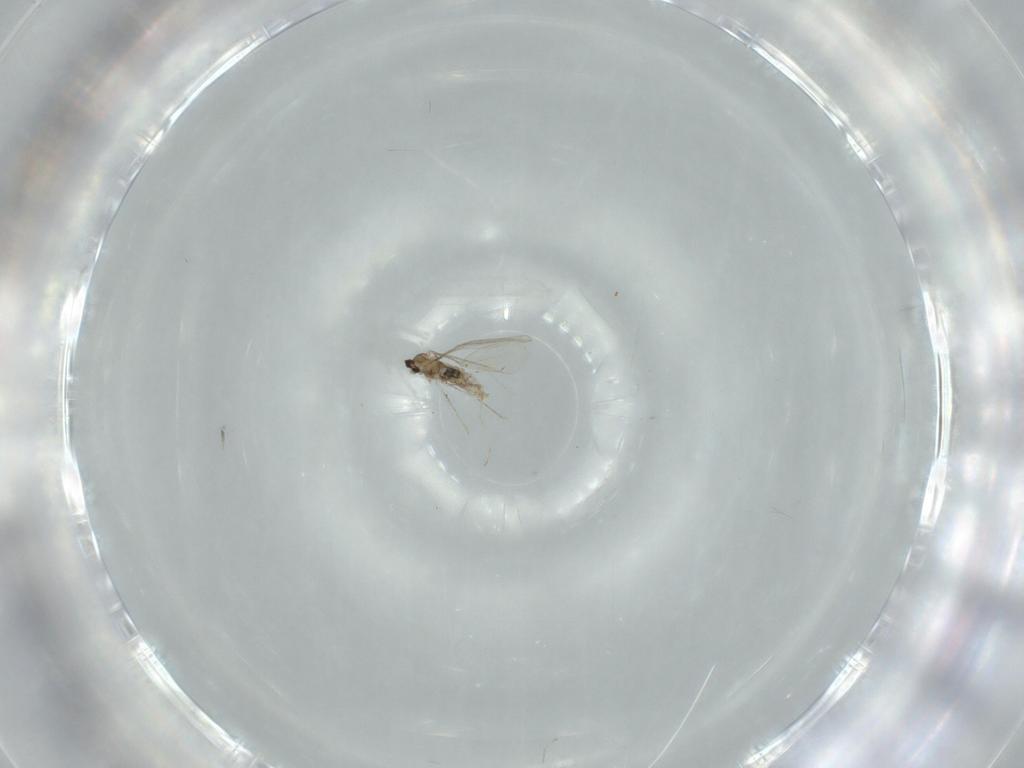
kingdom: Animalia
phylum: Arthropoda
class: Insecta
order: Diptera
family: Cecidomyiidae
